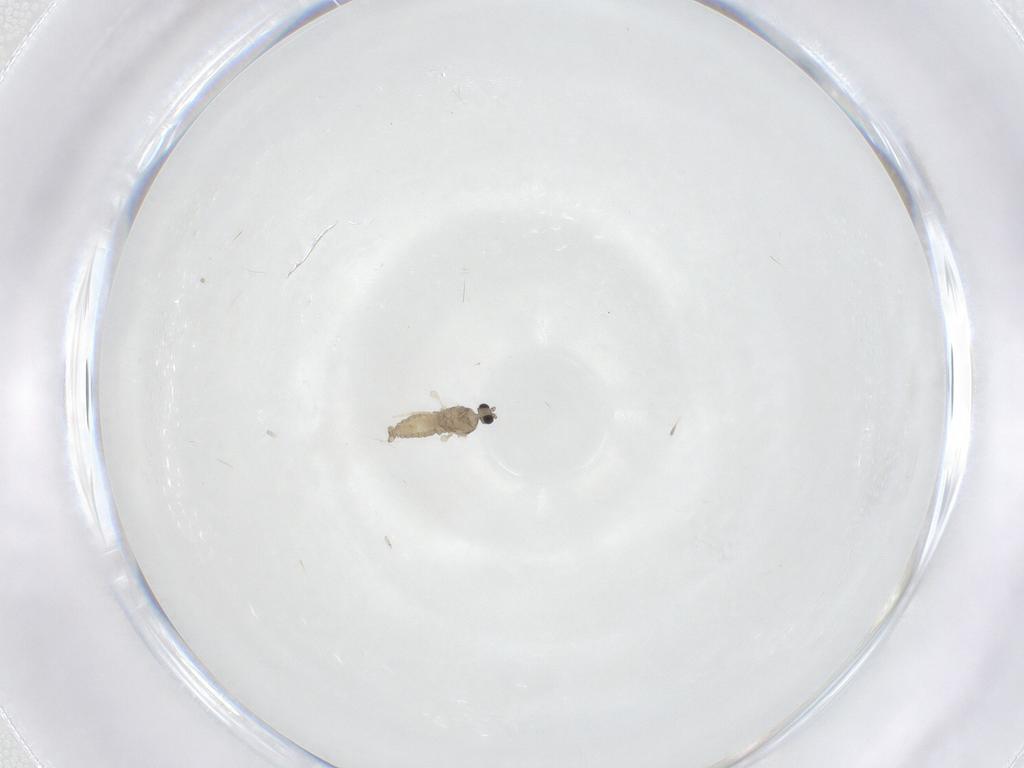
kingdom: Animalia
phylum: Arthropoda
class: Insecta
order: Diptera
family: Cecidomyiidae
